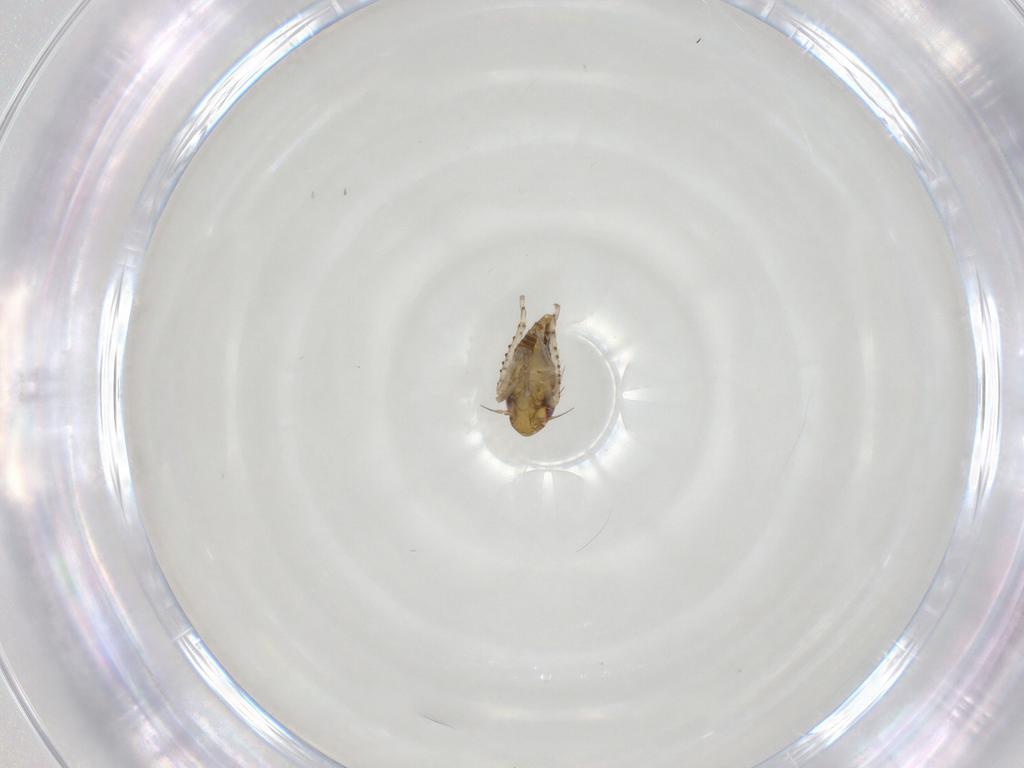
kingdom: Animalia
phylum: Arthropoda
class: Insecta
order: Hemiptera
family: Cicadellidae
